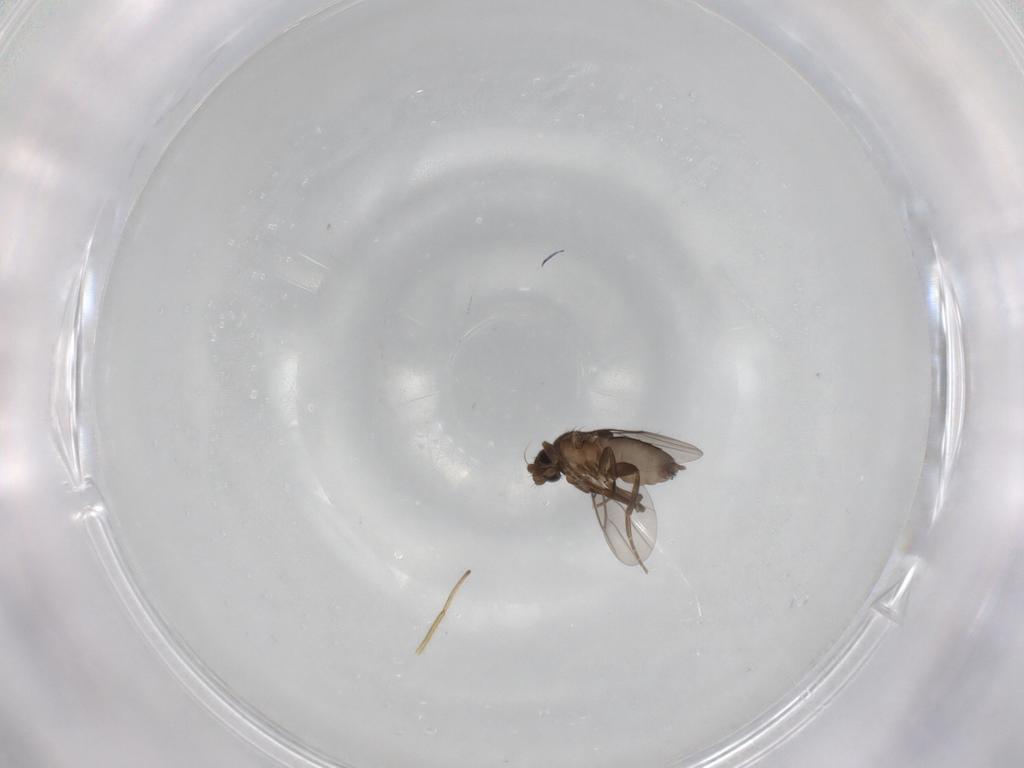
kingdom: Animalia
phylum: Arthropoda
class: Insecta
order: Diptera
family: Phoridae
